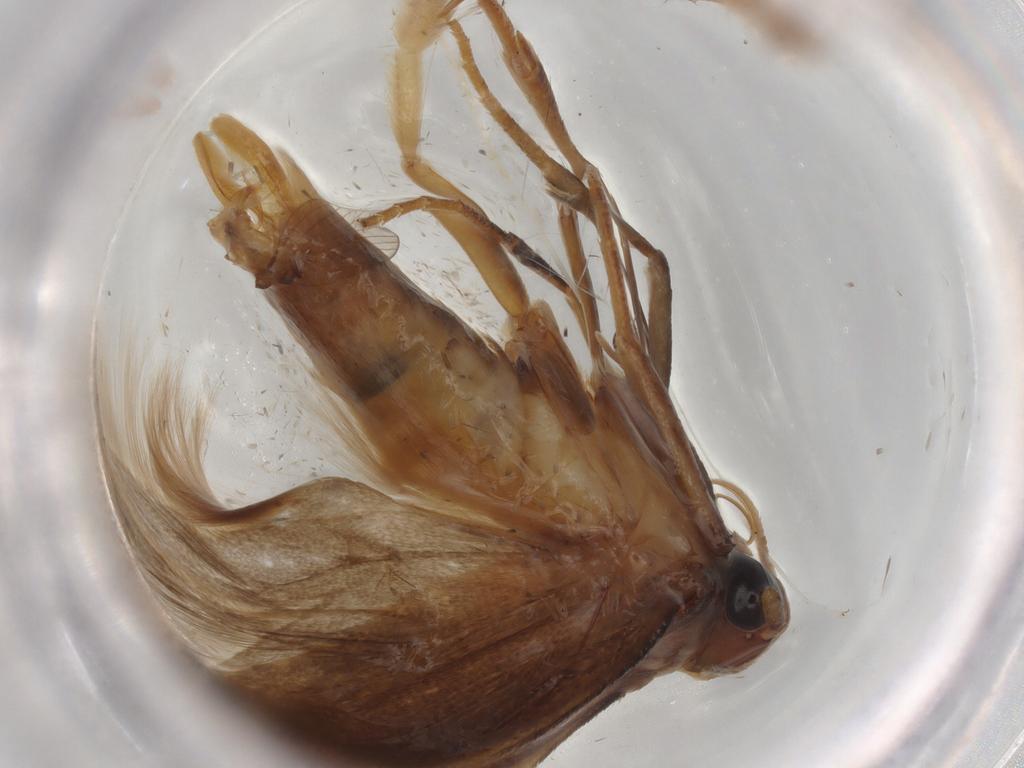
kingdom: Animalia
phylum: Arthropoda
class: Insecta
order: Lepidoptera
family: Gelechiidae
